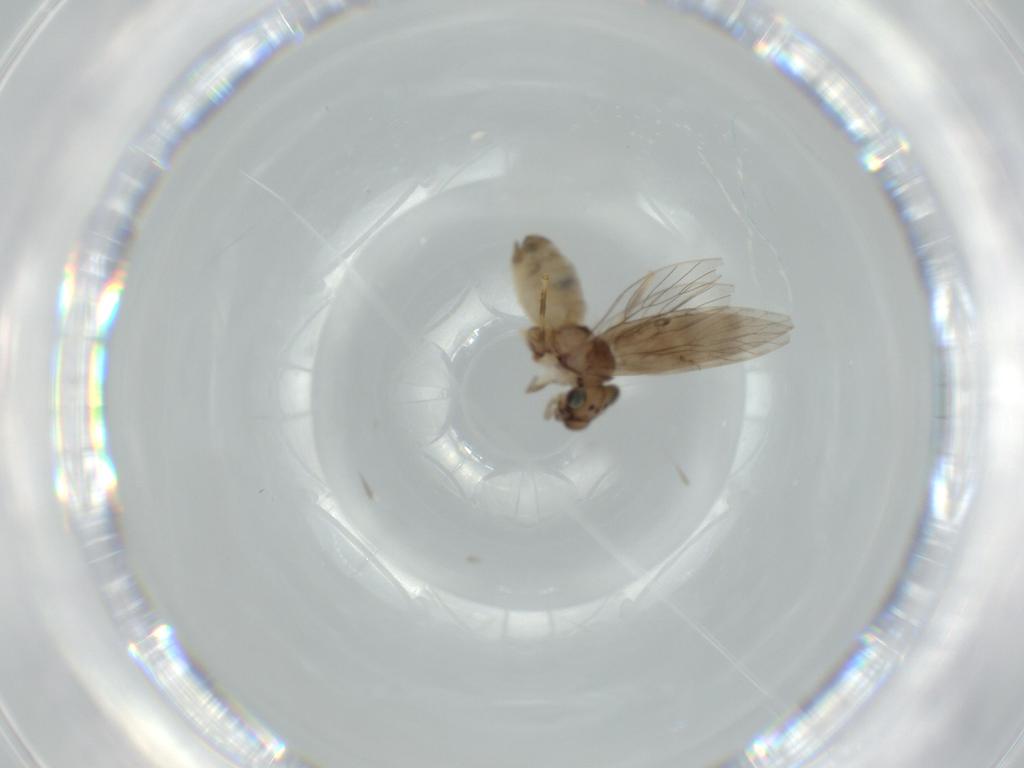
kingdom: Animalia
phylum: Arthropoda
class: Insecta
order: Psocodea
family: Lepidopsocidae
